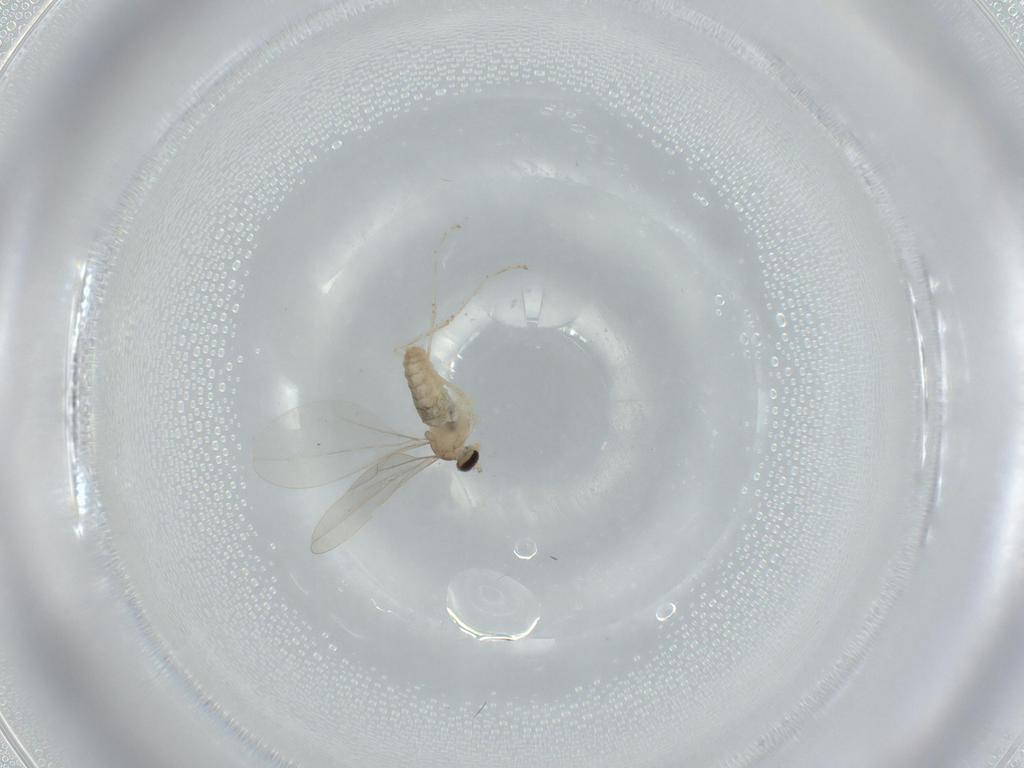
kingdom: Animalia
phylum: Arthropoda
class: Insecta
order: Diptera
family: Cecidomyiidae
